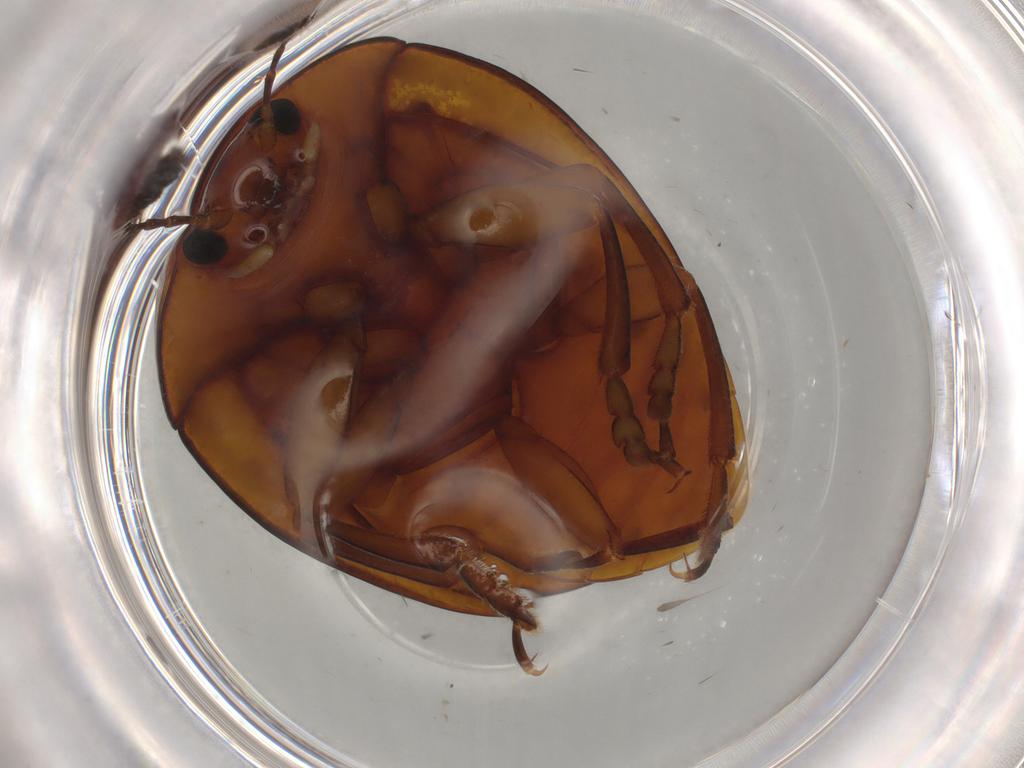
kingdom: Animalia
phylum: Arthropoda
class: Insecta
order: Coleoptera
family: Erotylidae
